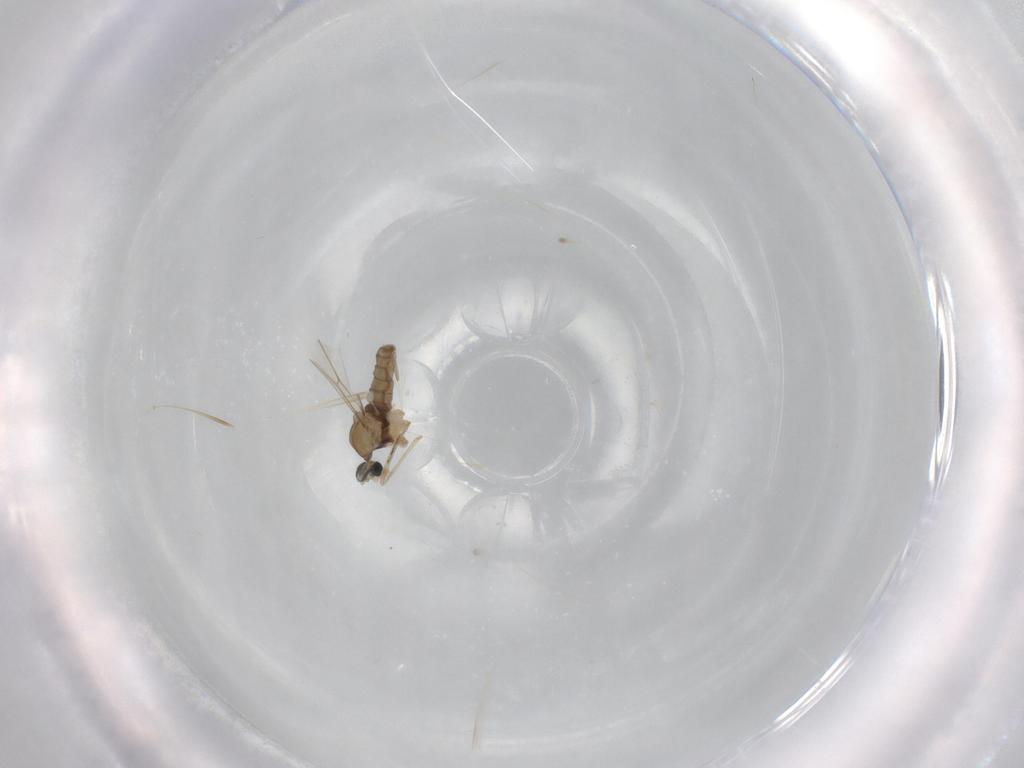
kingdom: Animalia
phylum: Arthropoda
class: Insecta
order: Diptera
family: Cecidomyiidae
